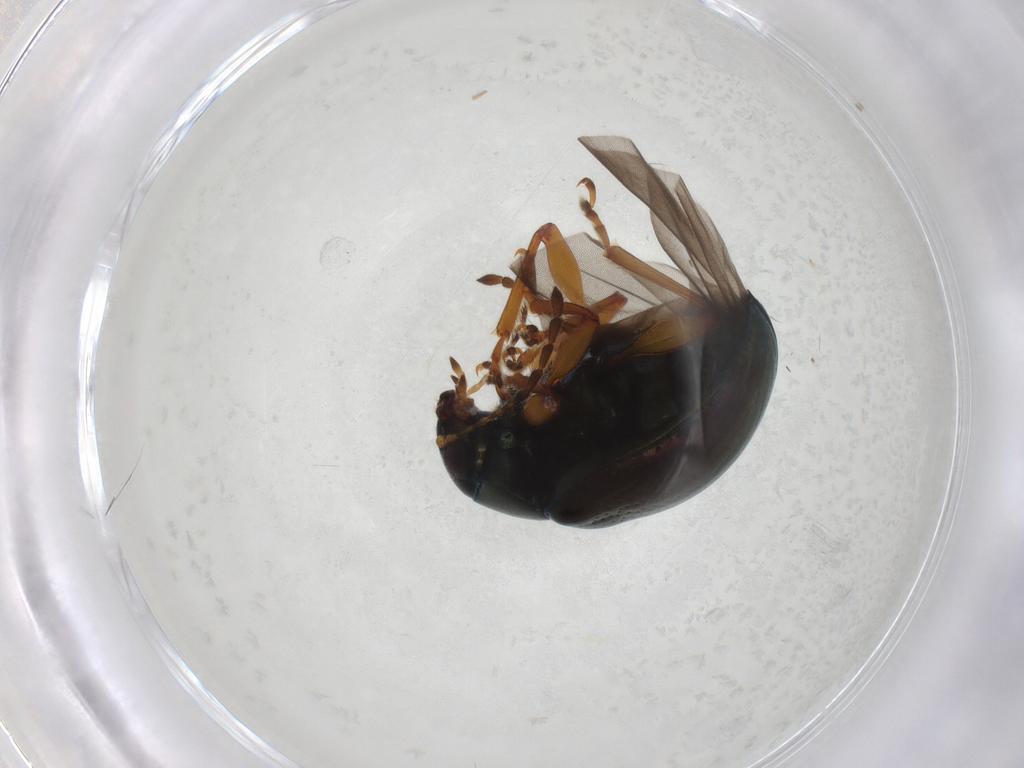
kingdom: Animalia
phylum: Arthropoda
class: Insecta
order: Coleoptera
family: Chrysomelidae
